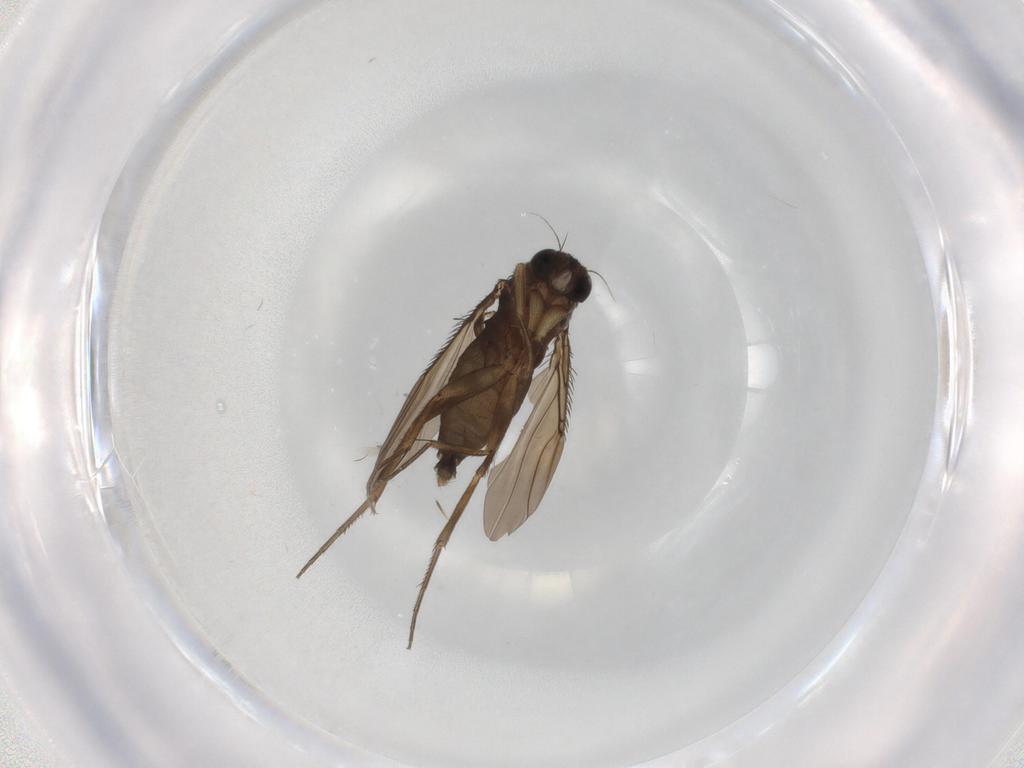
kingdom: Animalia
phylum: Arthropoda
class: Insecta
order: Diptera
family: Phoridae
